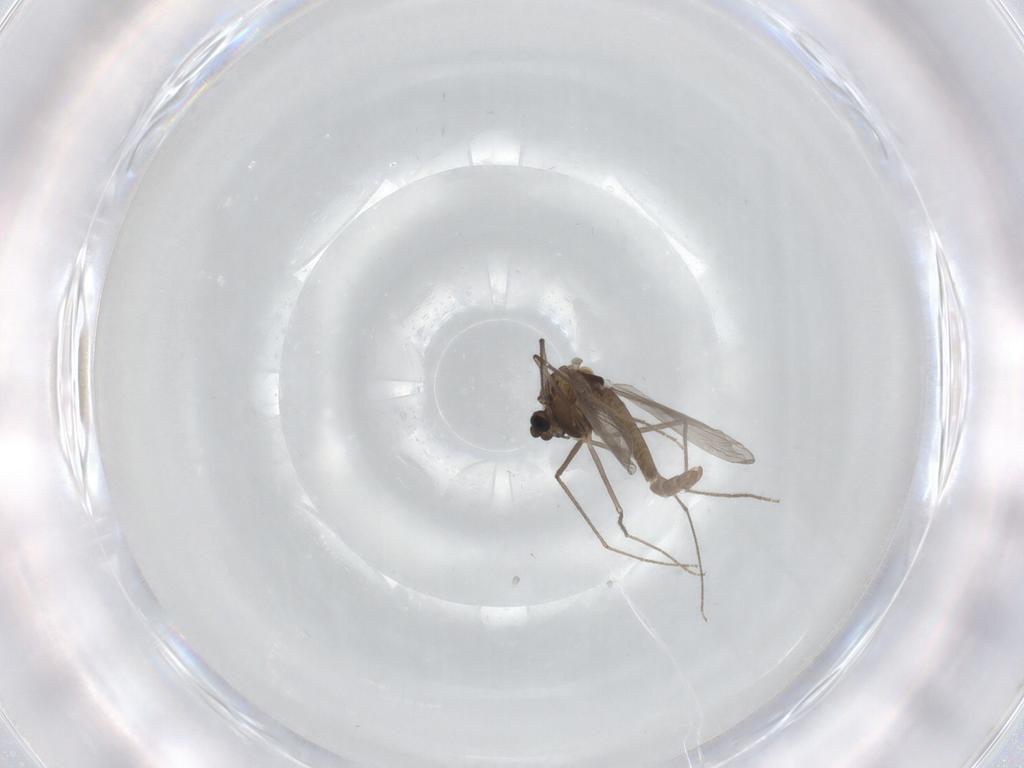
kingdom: Animalia
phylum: Arthropoda
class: Insecta
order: Diptera
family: Chironomidae
